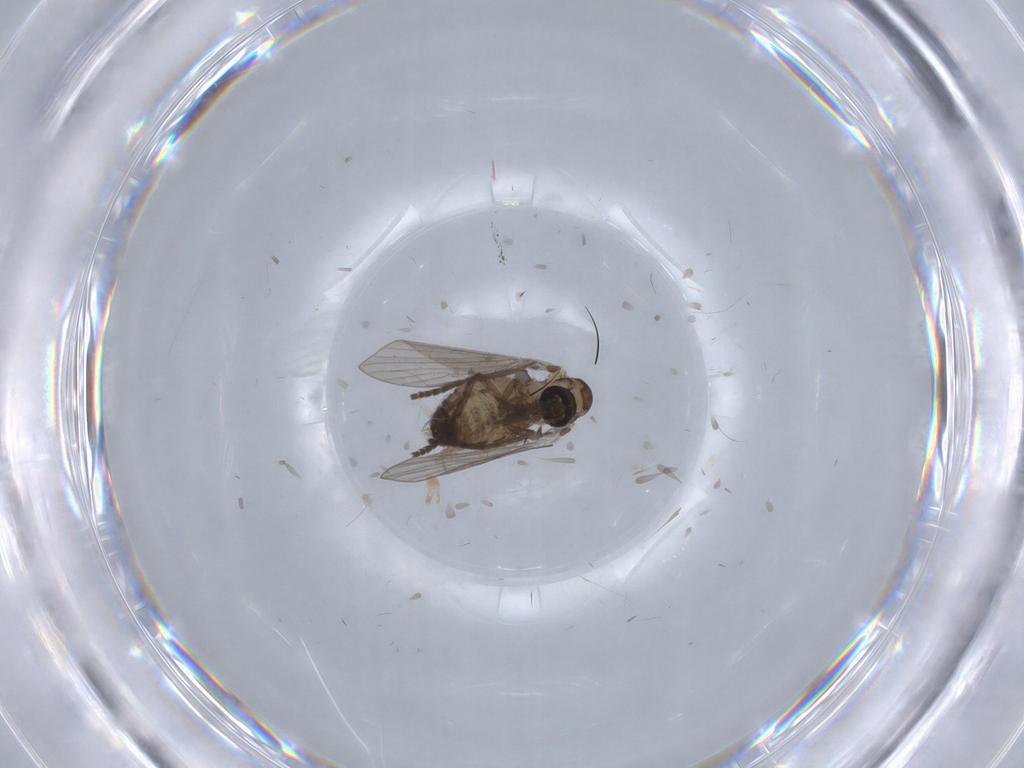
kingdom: Animalia
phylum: Arthropoda
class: Insecta
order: Diptera
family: Psychodidae
